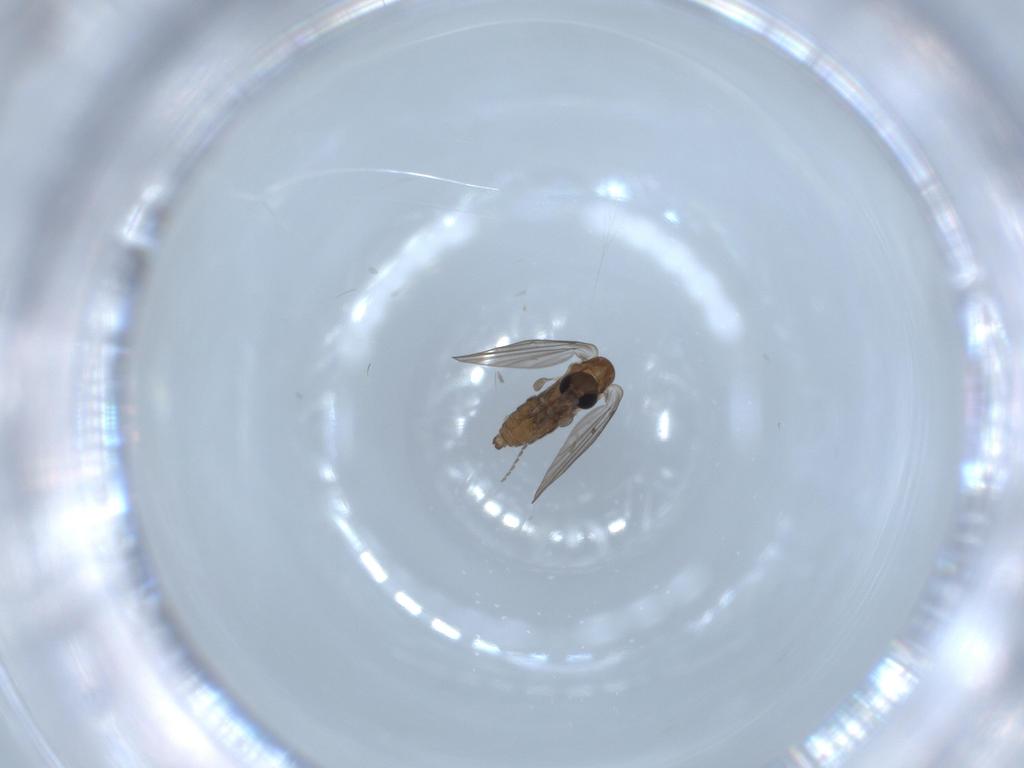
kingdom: Animalia
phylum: Arthropoda
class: Insecta
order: Diptera
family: Psychodidae
